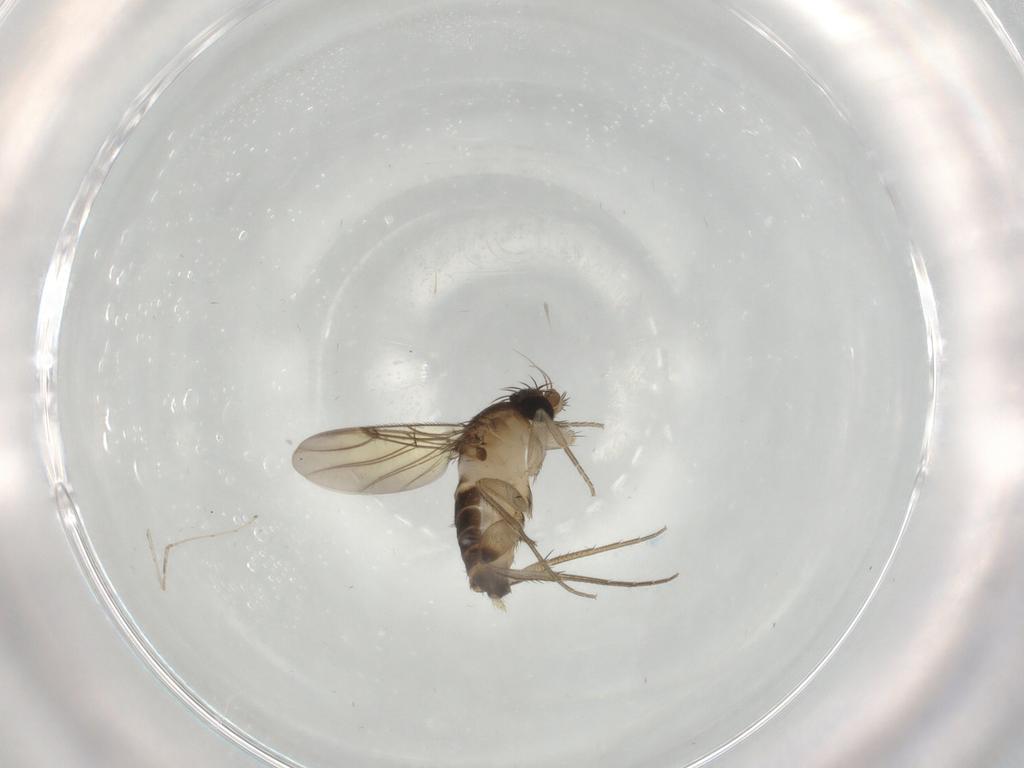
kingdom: Animalia
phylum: Arthropoda
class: Insecta
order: Diptera
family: Phoridae
